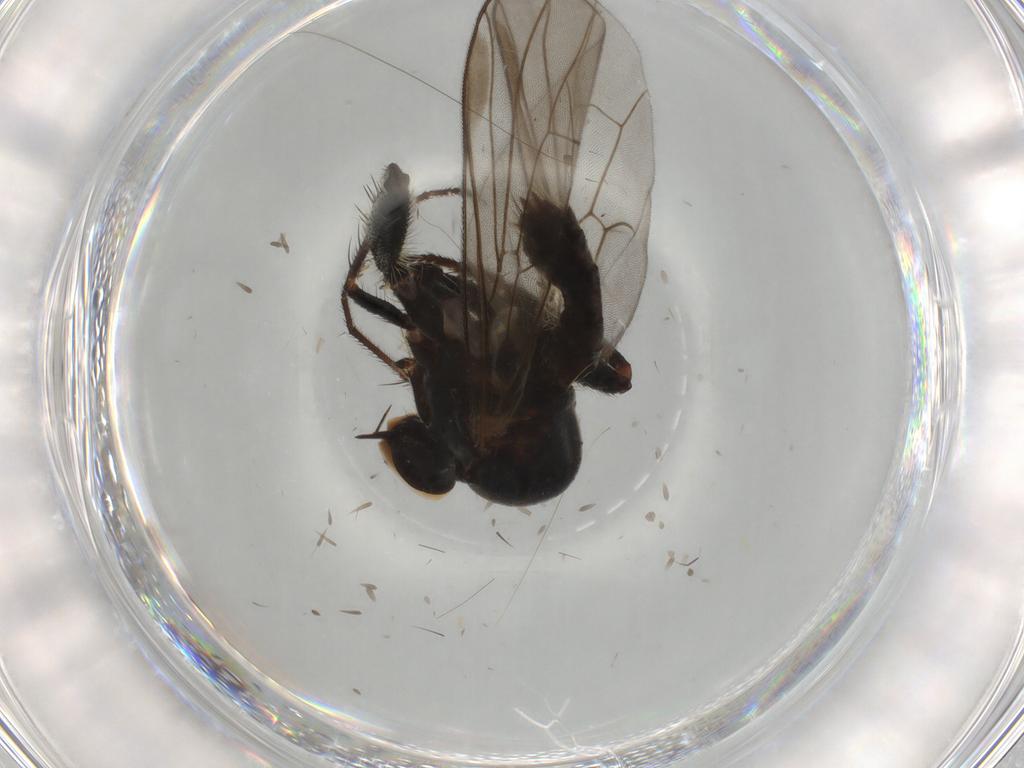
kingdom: Animalia
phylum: Arthropoda
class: Insecta
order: Diptera
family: Hybotidae
